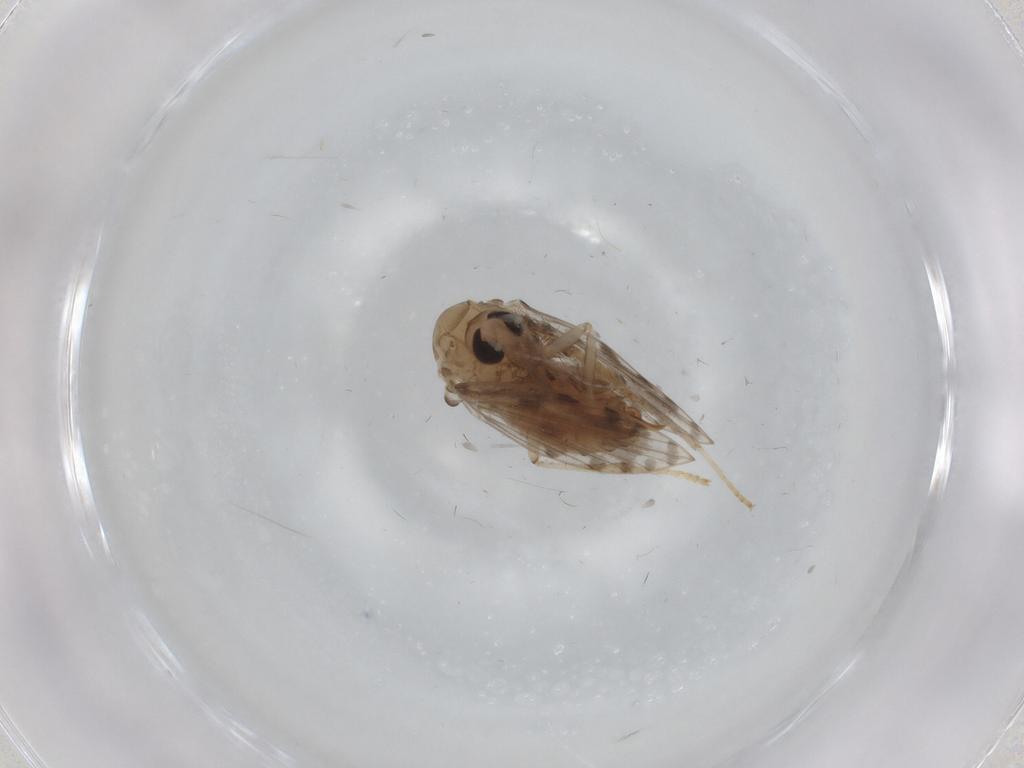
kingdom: Animalia
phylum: Arthropoda
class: Insecta
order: Diptera
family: Psychodidae
